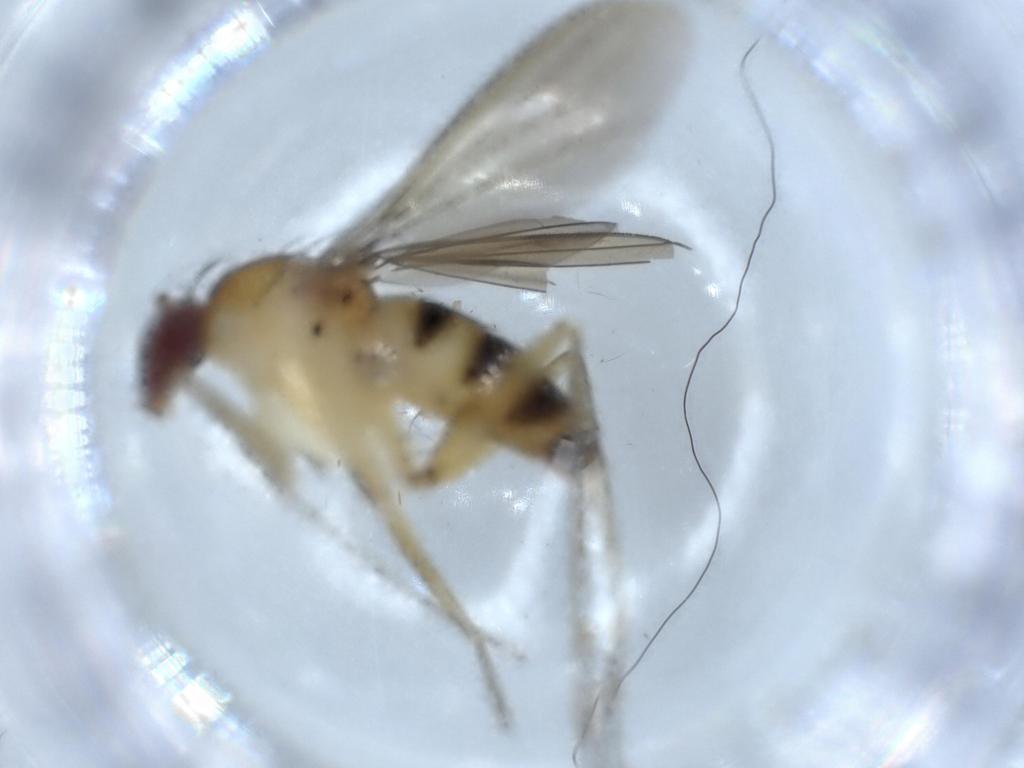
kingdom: Animalia
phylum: Arthropoda
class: Insecta
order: Diptera
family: Dolichopodidae
